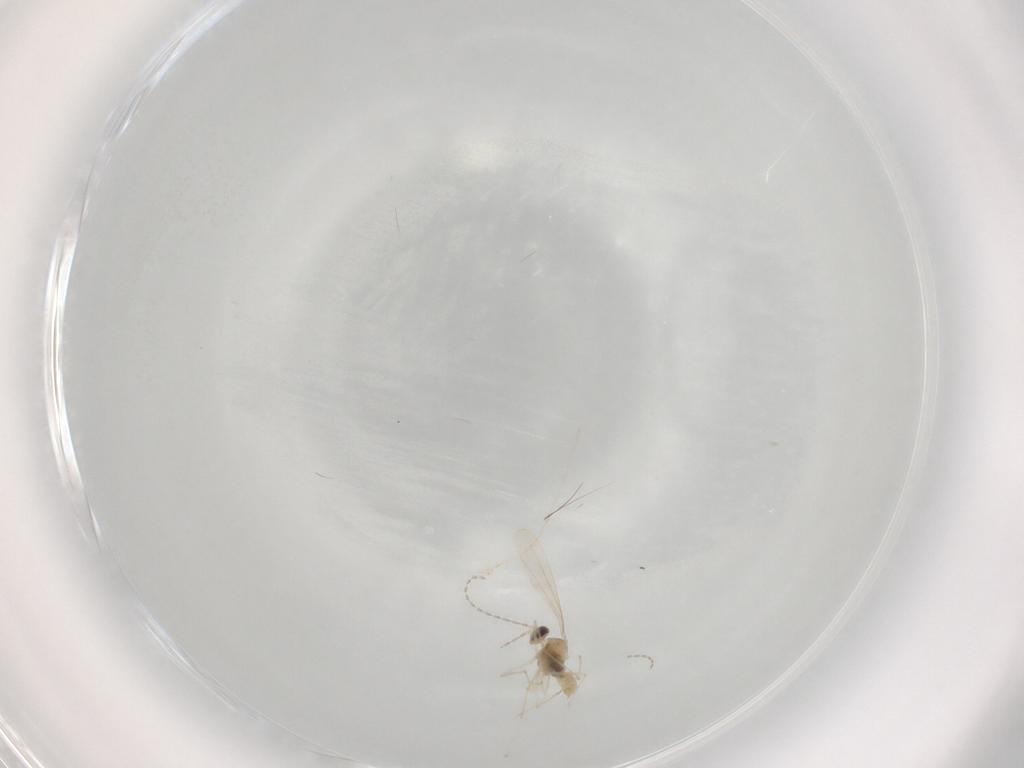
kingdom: Animalia
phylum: Arthropoda
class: Insecta
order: Diptera
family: Cecidomyiidae
